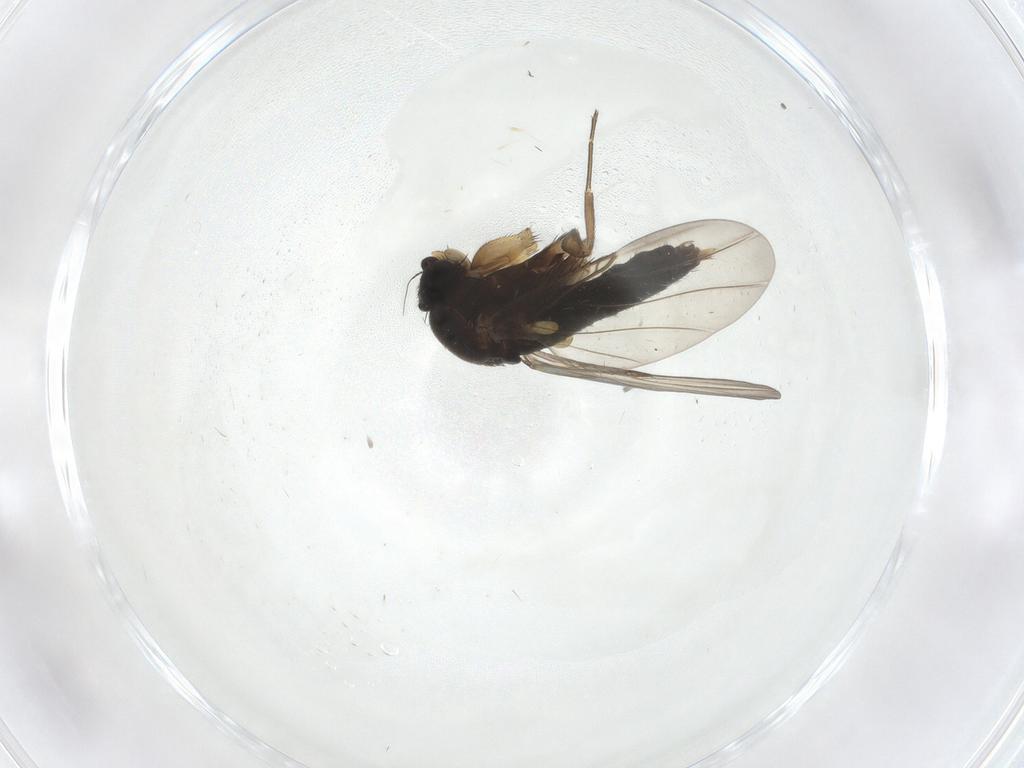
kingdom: Animalia
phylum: Arthropoda
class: Insecta
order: Diptera
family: Phoridae
